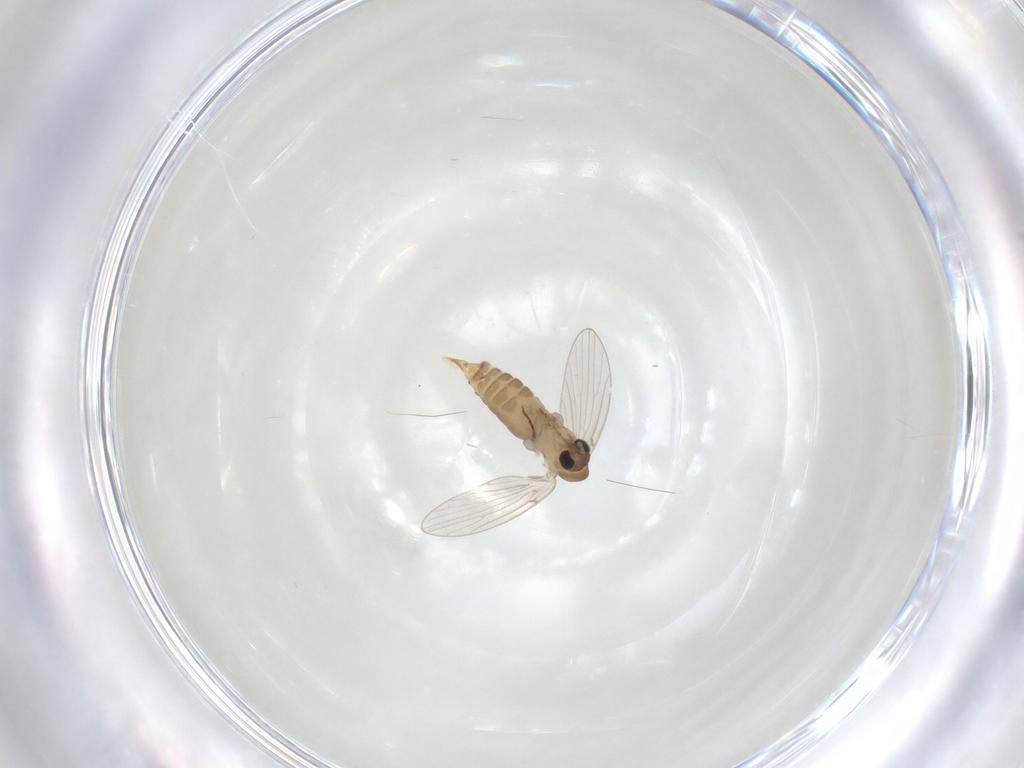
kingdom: Animalia
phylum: Arthropoda
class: Insecta
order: Diptera
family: Psychodidae
